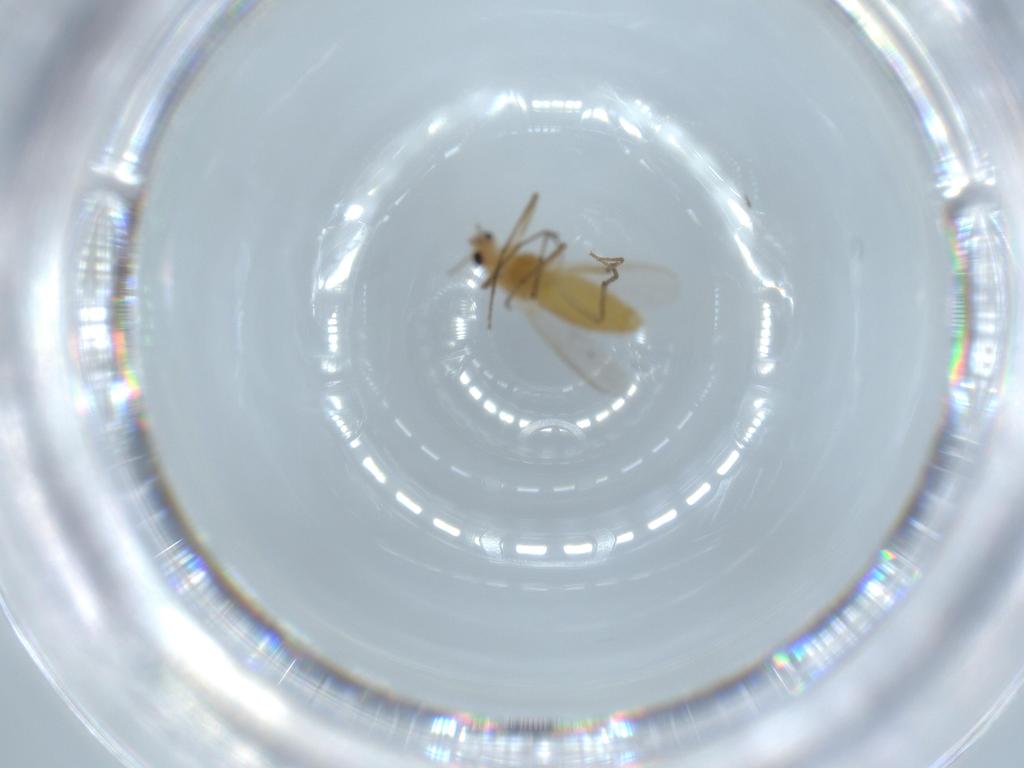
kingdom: Animalia
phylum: Arthropoda
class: Insecta
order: Diptera
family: Chironomidae
